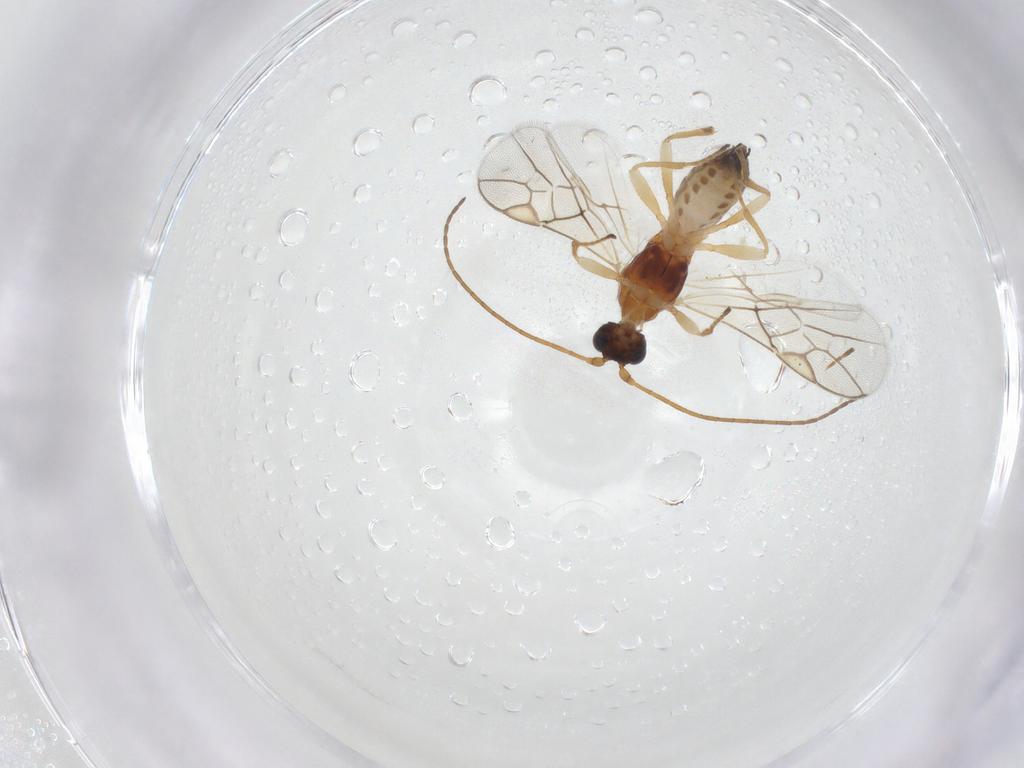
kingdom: Animalia
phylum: Arthropoda
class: Insecta
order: Hymenoptera
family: Braconidae
